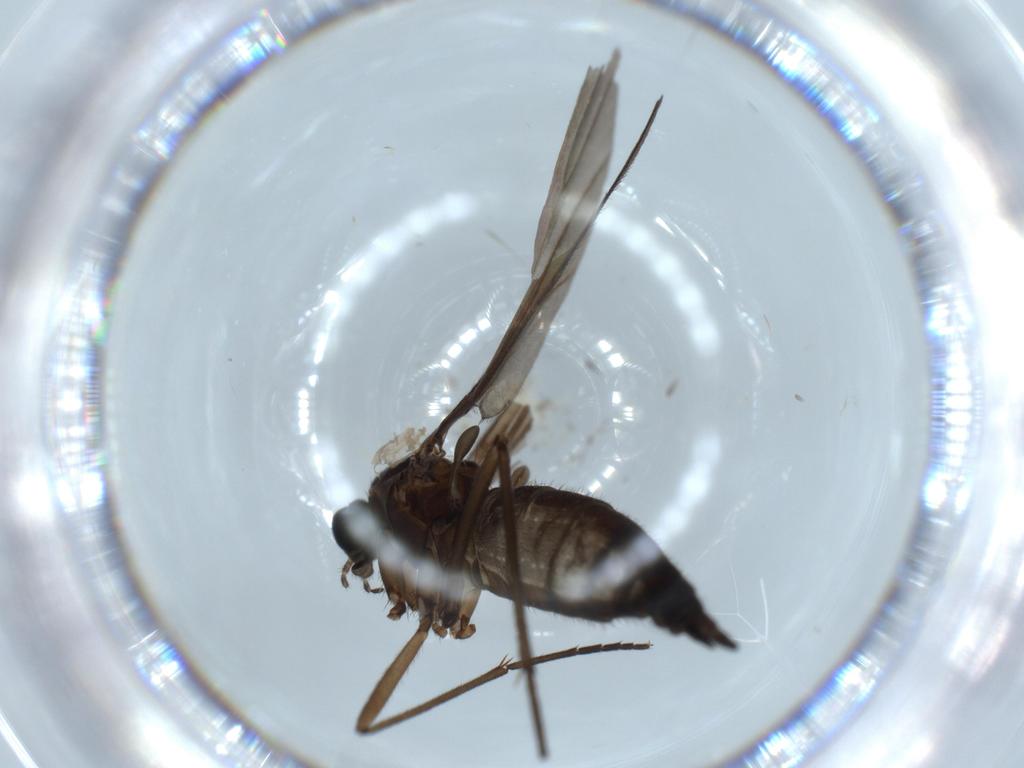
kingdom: Animalia
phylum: Arthropoda
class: Insecta
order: Diptera
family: Sciaridae
